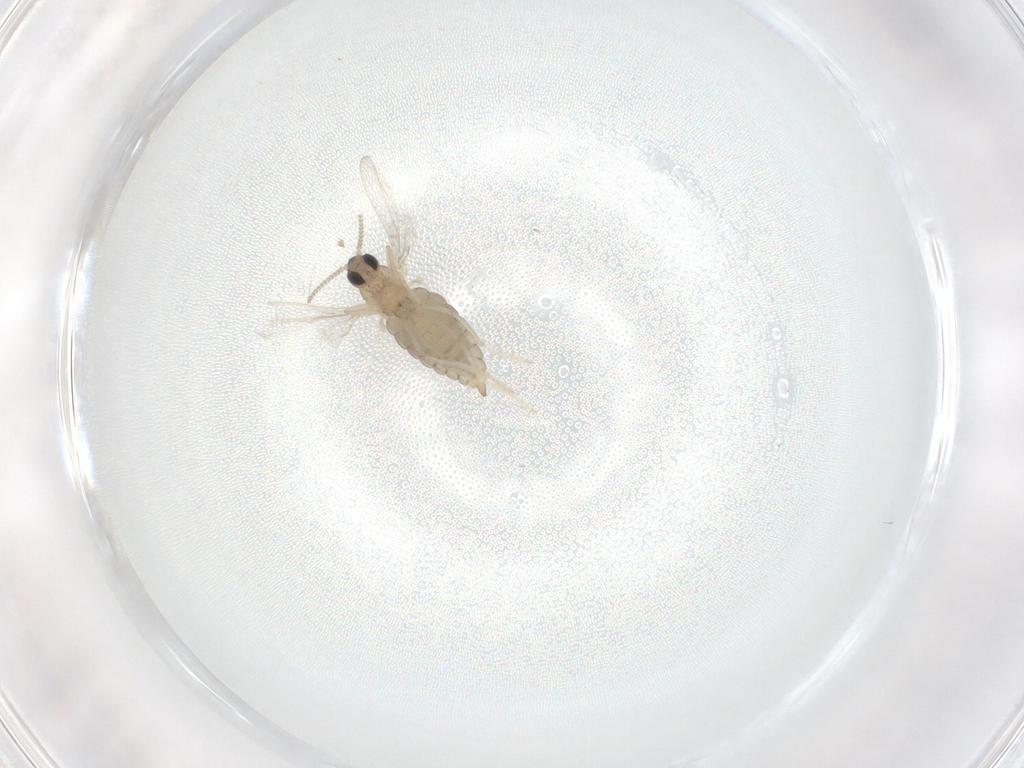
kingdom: Animalia
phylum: Arthropoda
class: Insecta
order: Diptera
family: Cecidomyiidae
